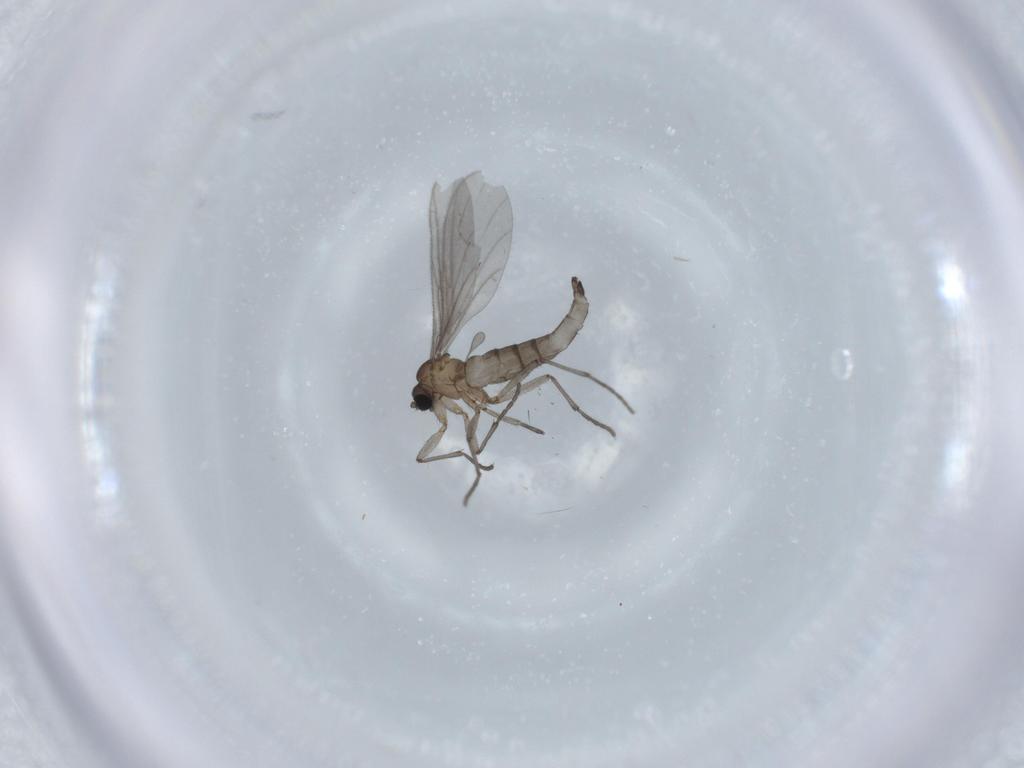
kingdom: Animalia
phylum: Arthropoda
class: Insecta
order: Diptera
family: Sciaridae
